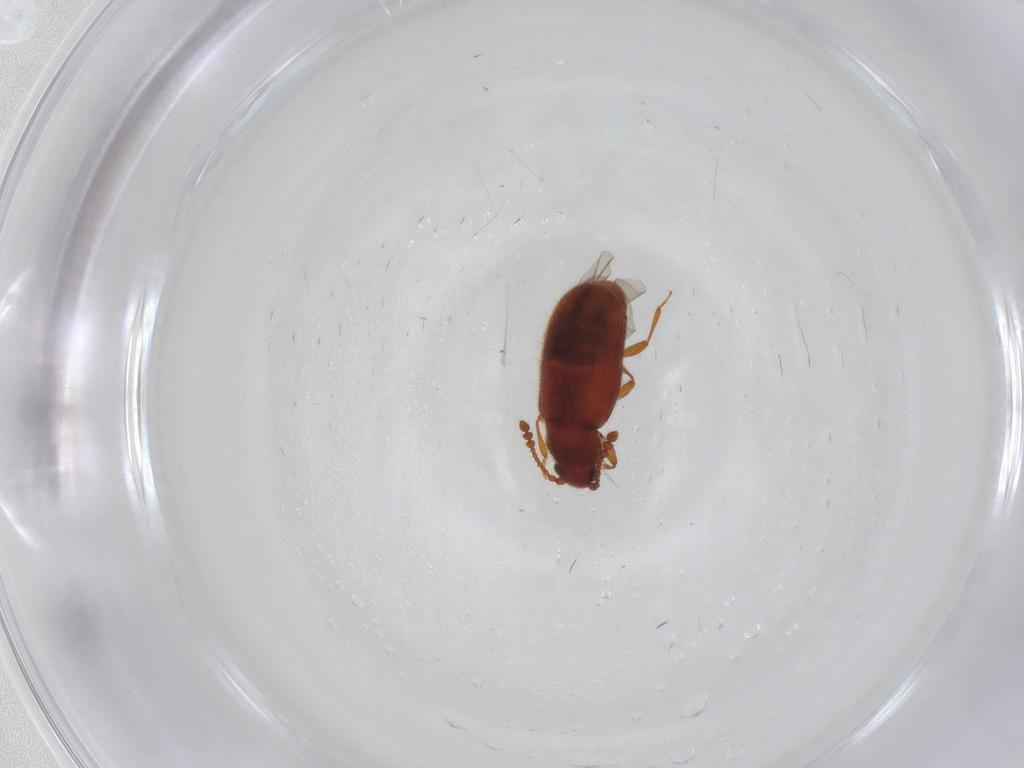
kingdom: Animalia
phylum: Arthropoda
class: Insecta
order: Coleoptera
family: Cryptophagidae
